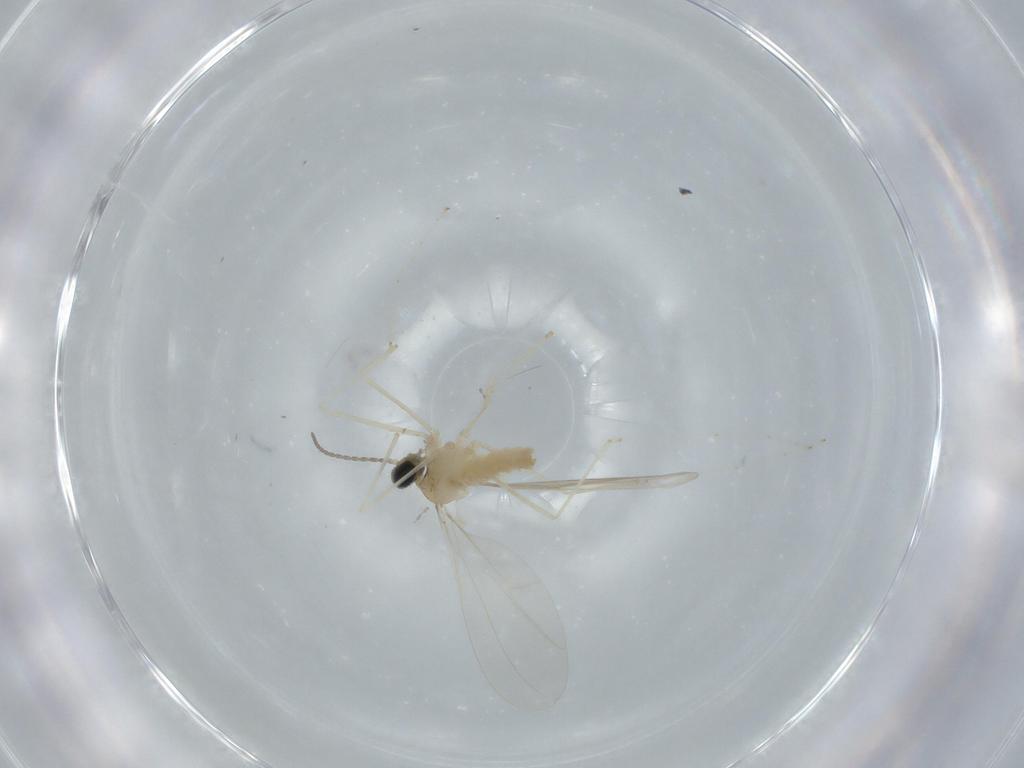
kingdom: Animalia
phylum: Arthropoda
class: Insecta
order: Diptera
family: Cecidomyiidae
